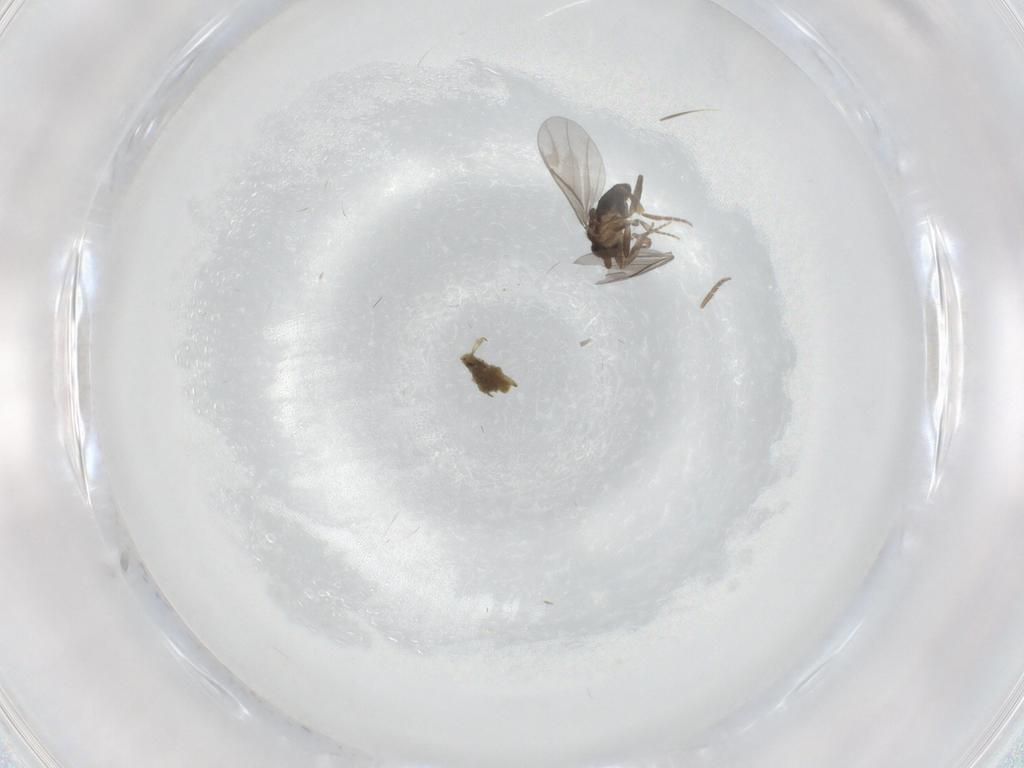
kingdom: Animalia
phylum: Arthropoda
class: Insecta
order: Diptera
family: Phoridae
